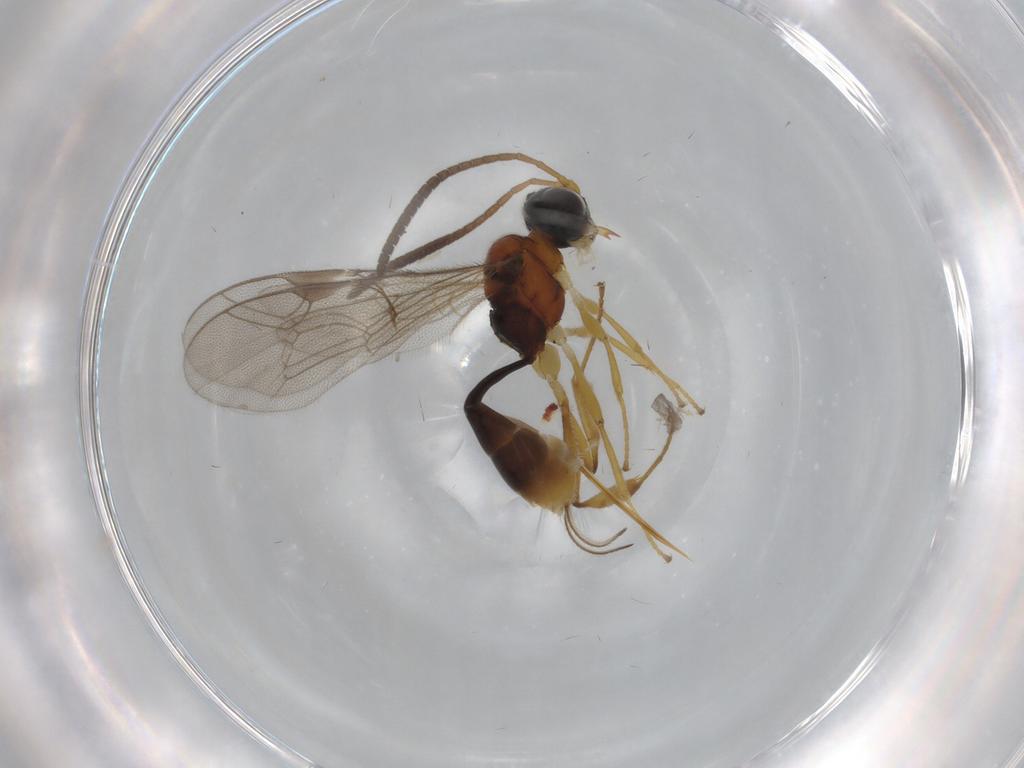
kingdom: Animalia
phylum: Arthropoda
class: Insecta
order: Hymenoptera
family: Ichneumonidae
